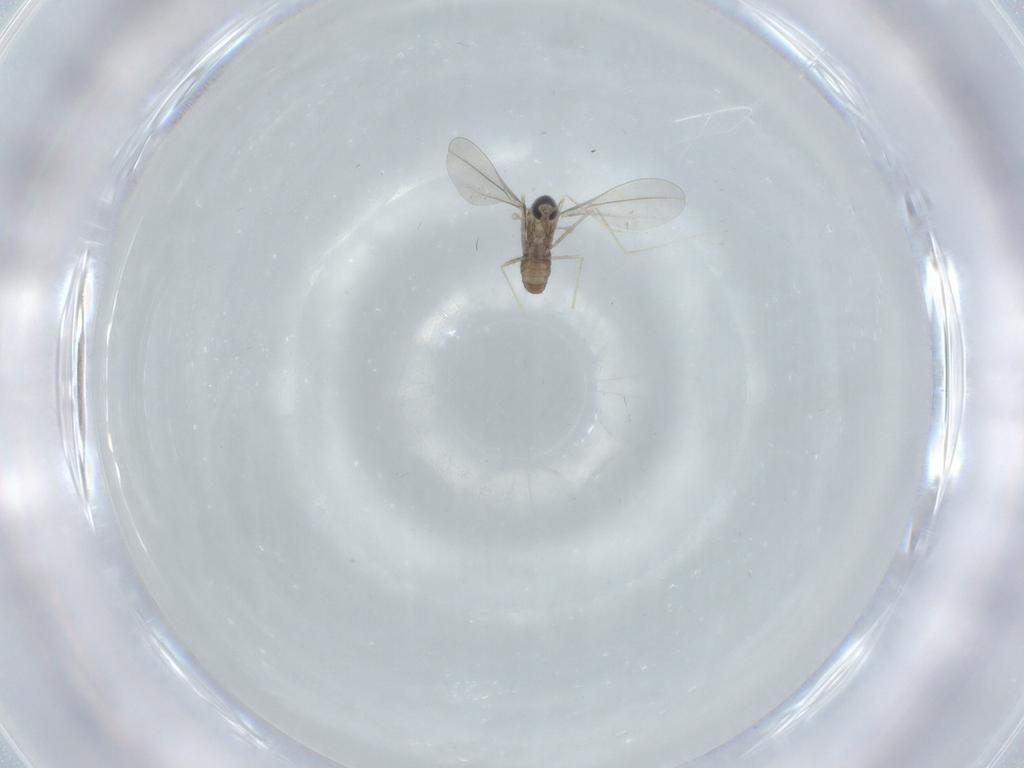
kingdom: Animalia
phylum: Arthropoda
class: Insecta
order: Diptera
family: Cecidomyiidae
